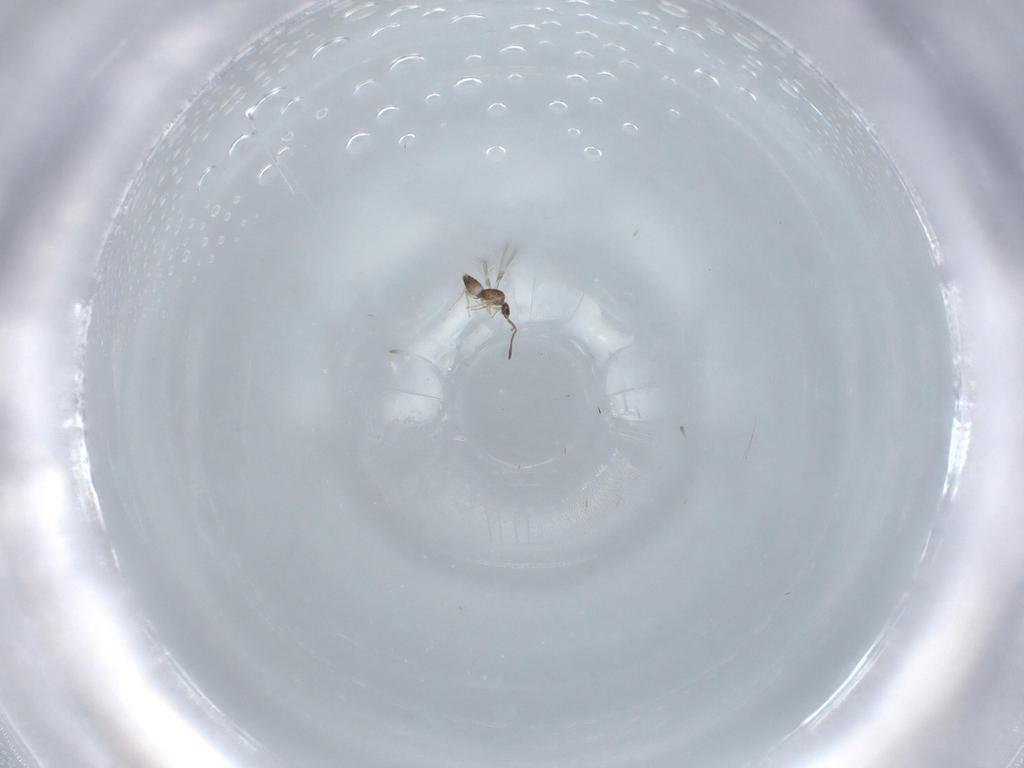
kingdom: Animalia
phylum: Arthropoda
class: Insecta
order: Hymenoptera
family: Mymaridae
